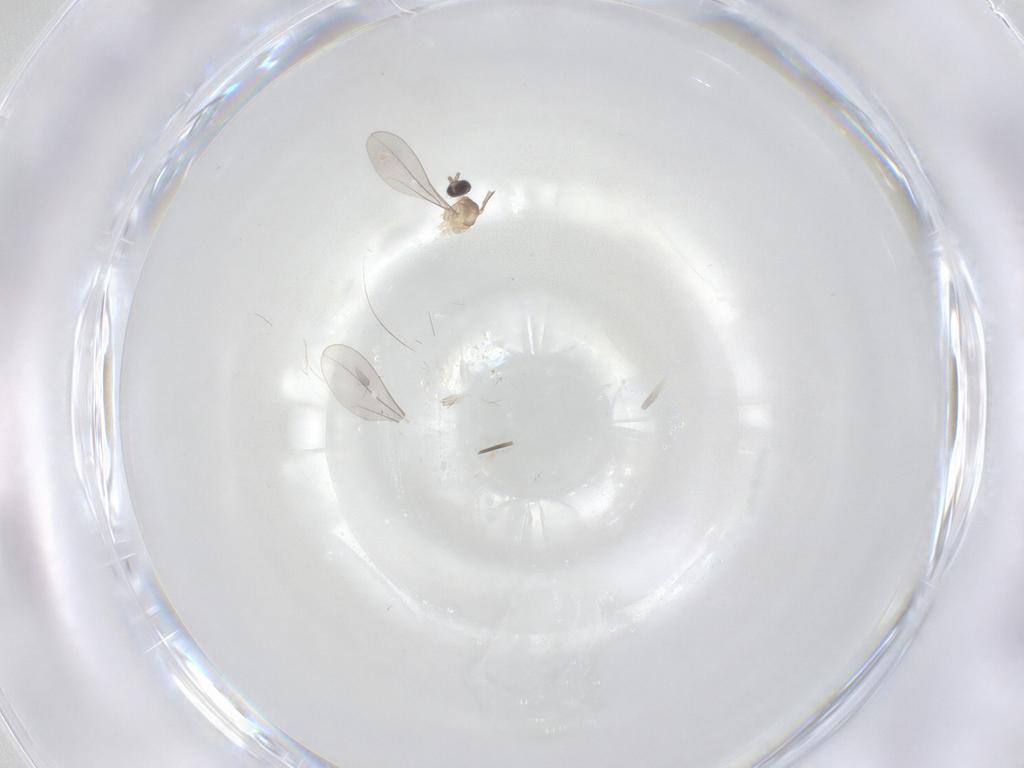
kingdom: Animalia
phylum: Arthropoda
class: Insecta
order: Diptera
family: Cecidomyiidae
